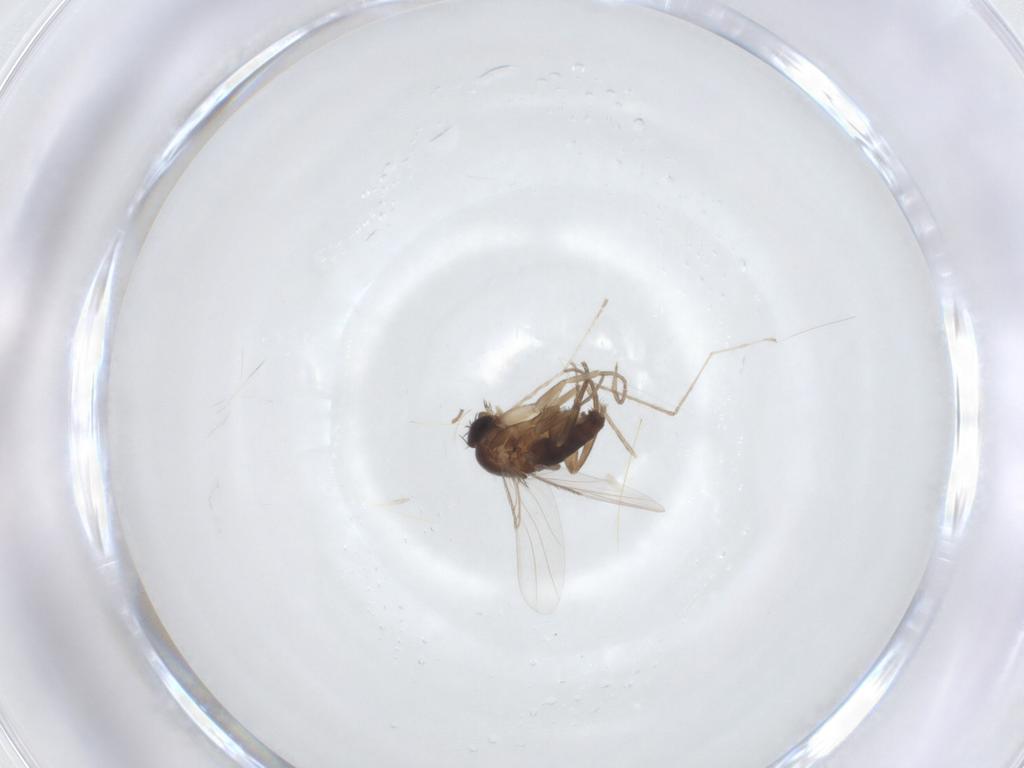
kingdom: Animalia
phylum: Arthropoda
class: Insecta
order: Diptera
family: Phoridae
